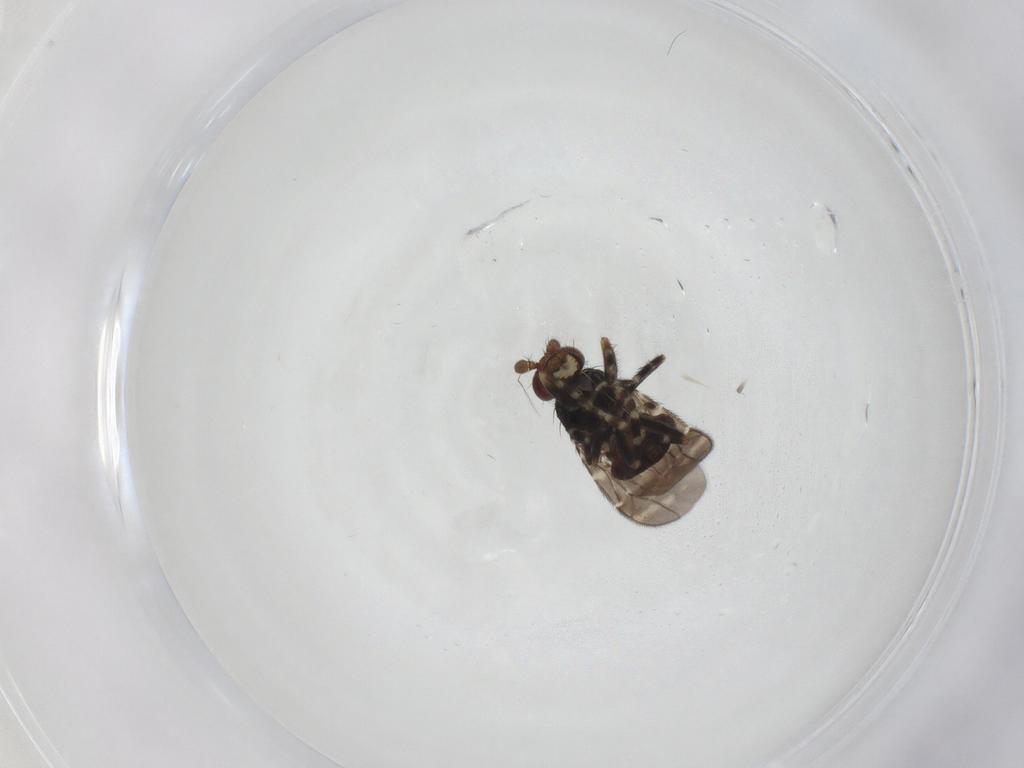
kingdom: Animalia
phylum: Arthropoda
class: Insecta
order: Diptera
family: Sphaeroceridae
